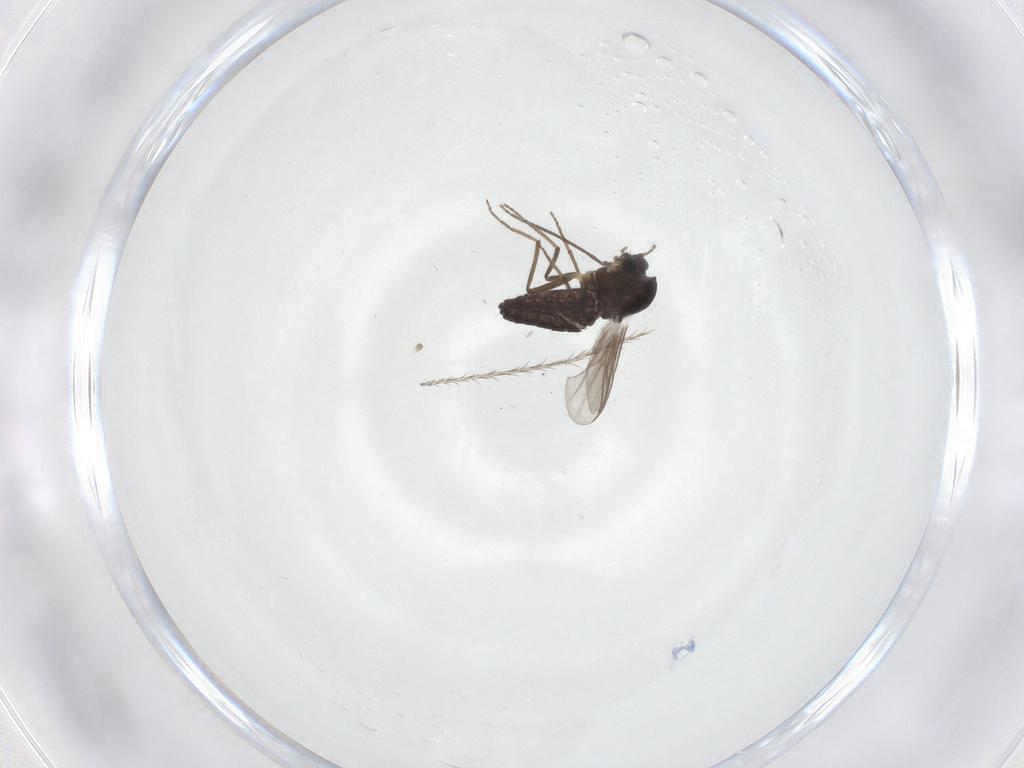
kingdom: Animalia
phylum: Arthropoda
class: Insecta
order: Diptera
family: Chironomidae
